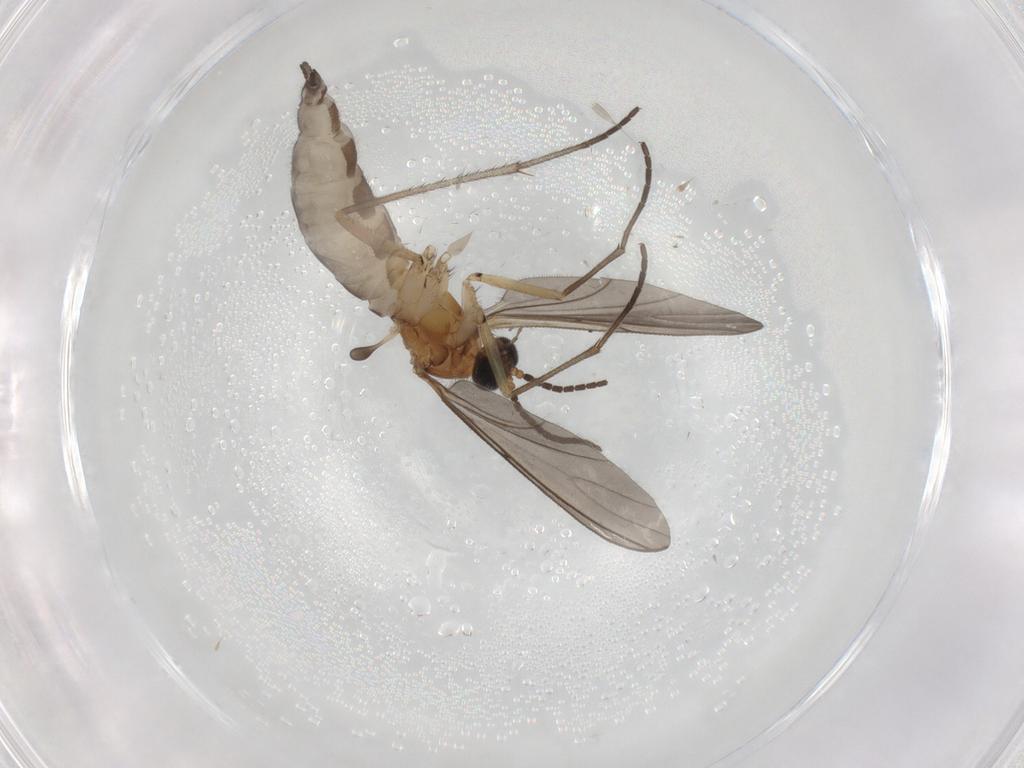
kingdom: Animalia
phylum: Arthropoda
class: Insecta
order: Diptera
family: Sciaridae
